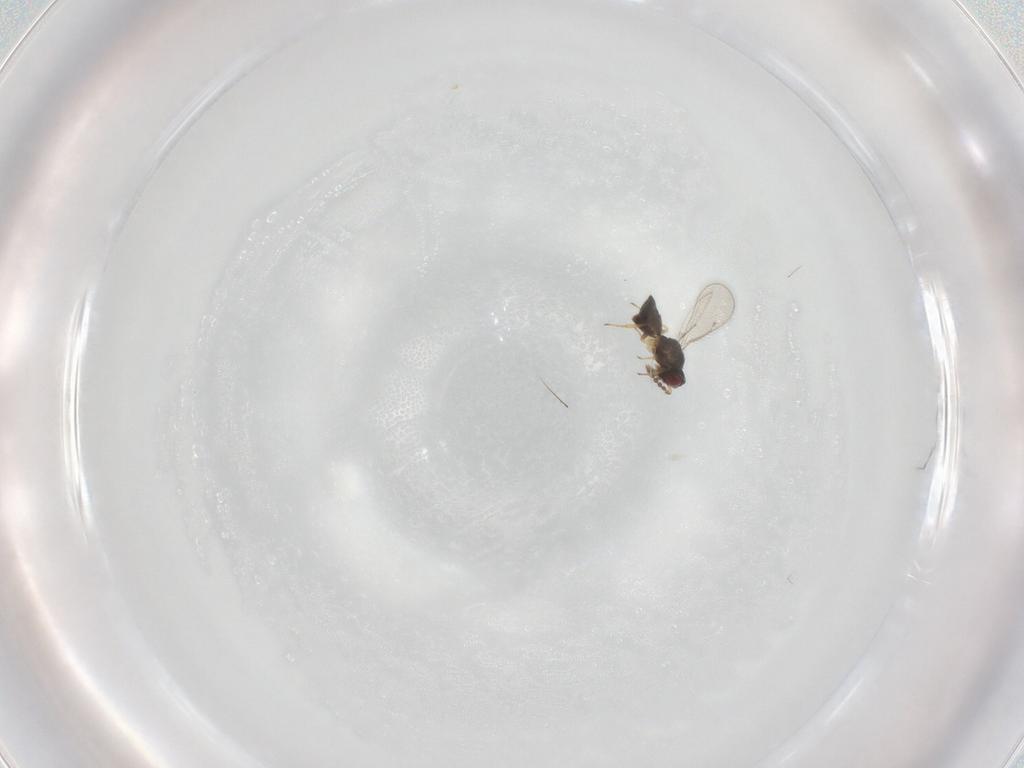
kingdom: Animalia
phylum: Arthropoda
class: Insecta
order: Hymenoptera
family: Eulophidae
